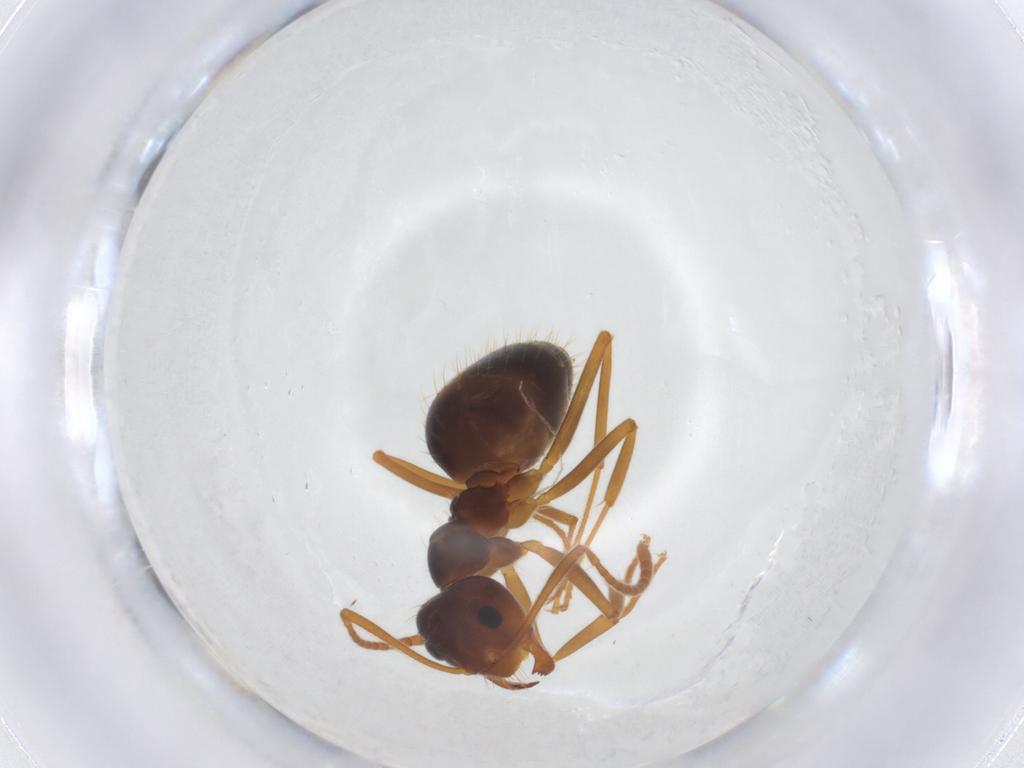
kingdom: Animalia
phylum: Arthropoda
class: Insecta
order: Hymenoptera
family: Formicidae
